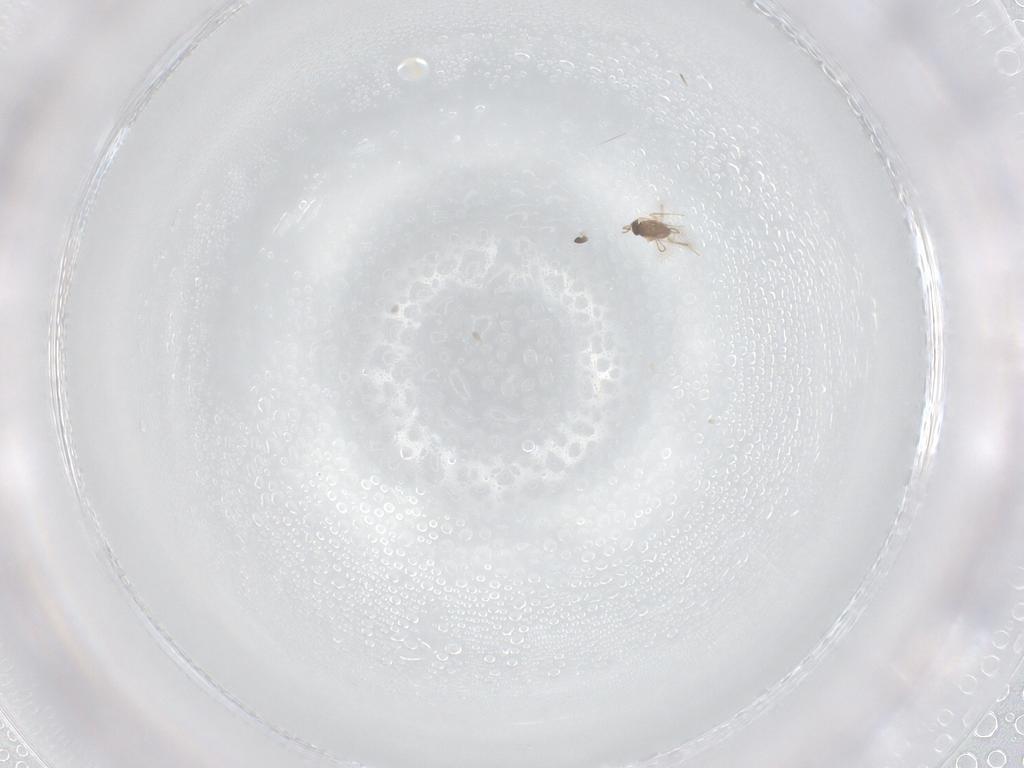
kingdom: Animalia
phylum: Arthropoda
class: Insecta
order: Hymenoptera
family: Mymaridae
